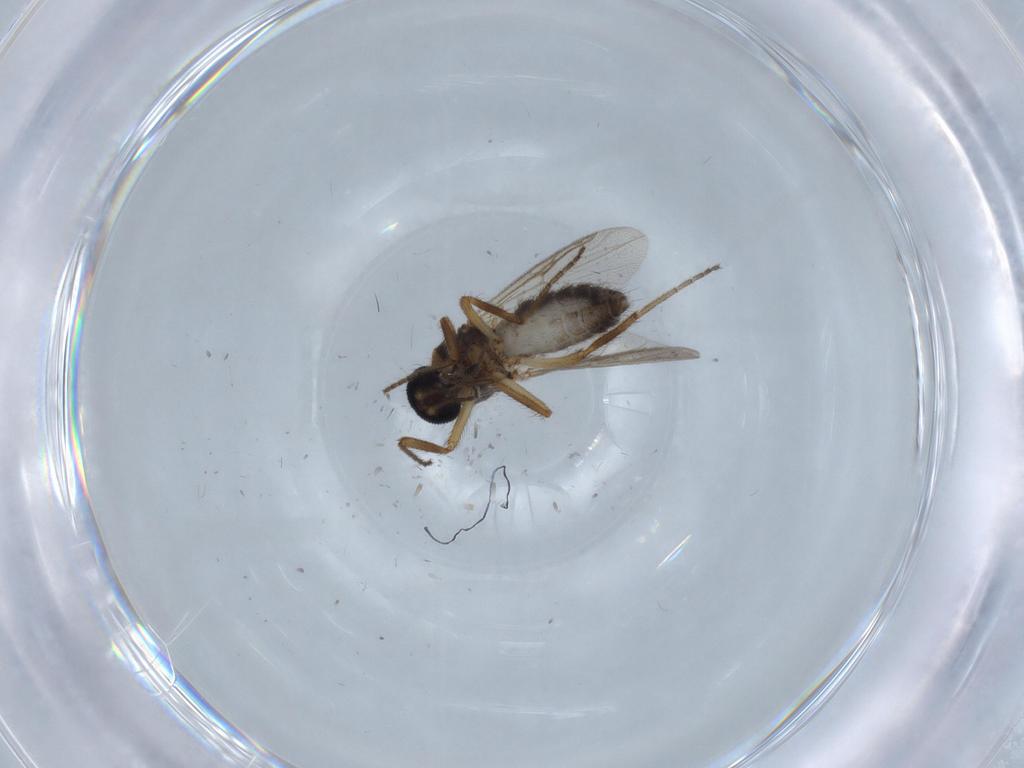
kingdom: Animalia
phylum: Arthropoda
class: Insecta
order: Diptera
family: Ceratopogonidae
